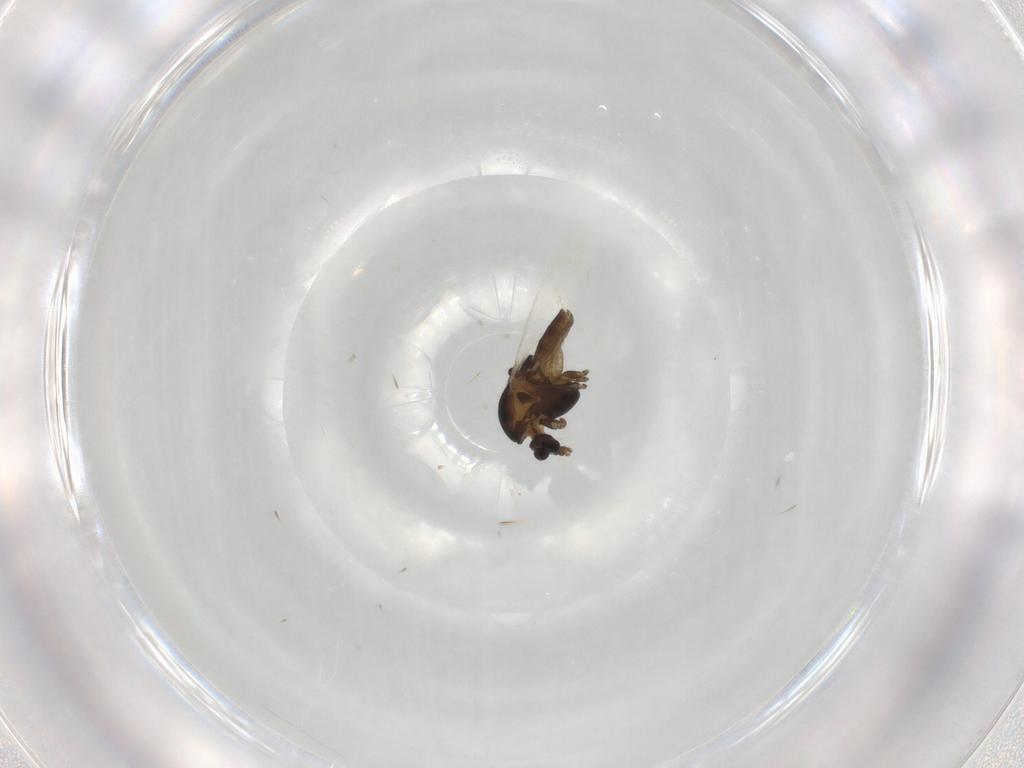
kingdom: Animalia
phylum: Arthropoda
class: Insecta
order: Diptera
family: Chironomidae
